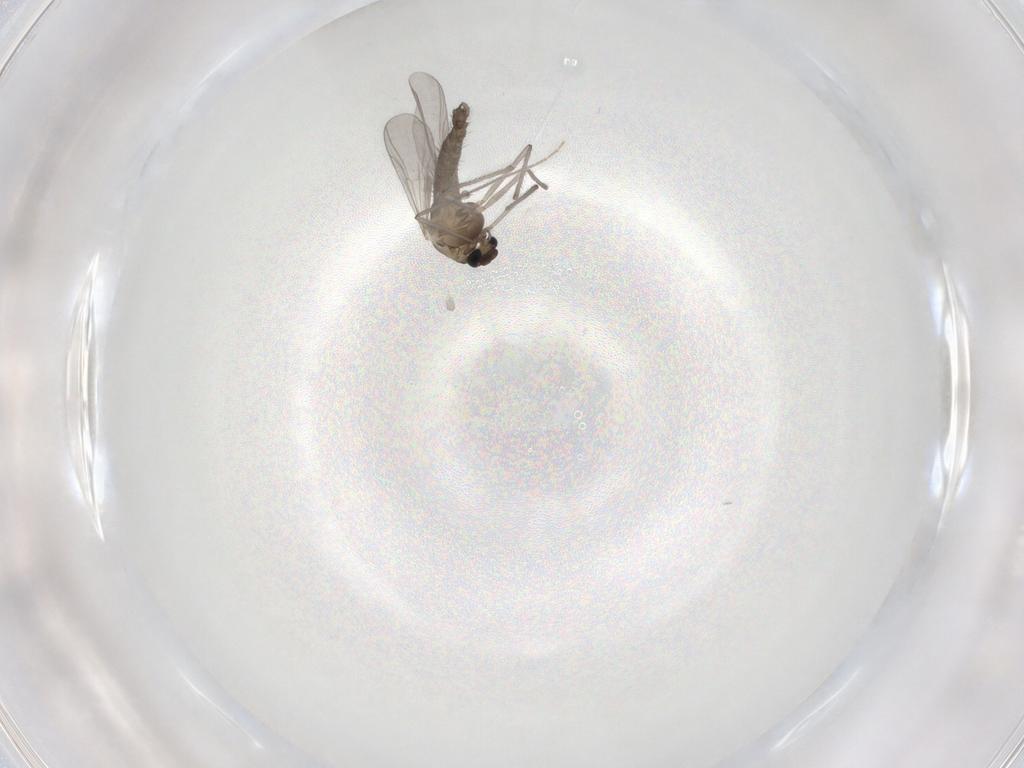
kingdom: Animalia
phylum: Arthropoda
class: Insecta
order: Diptera
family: Chironomidae
